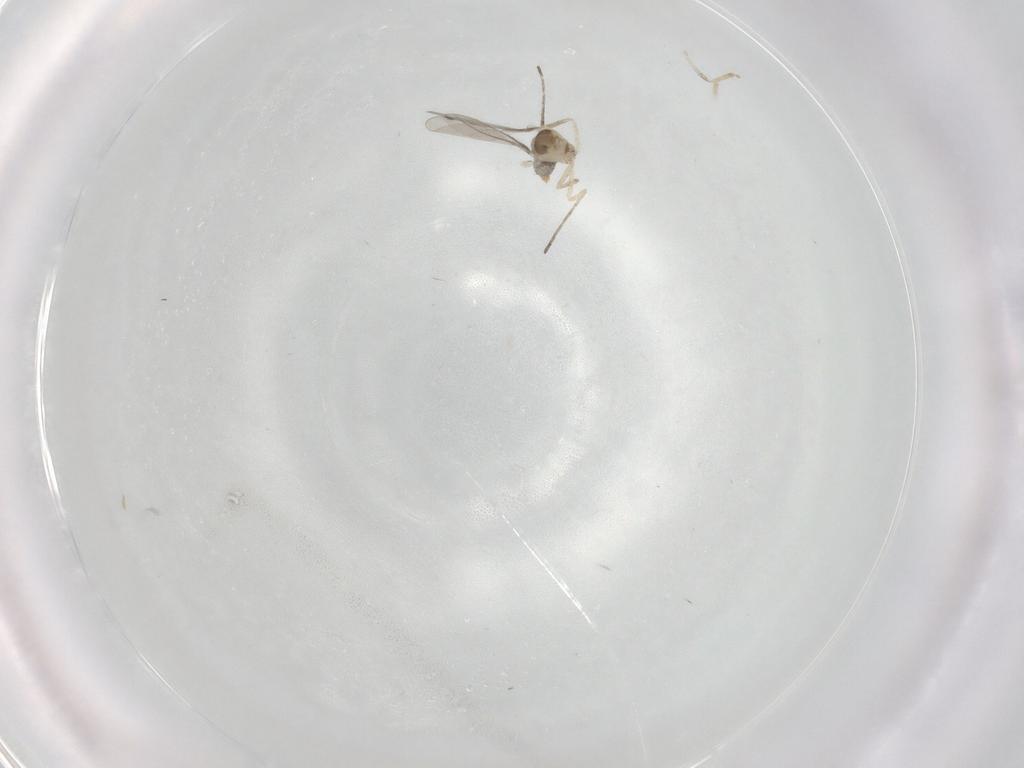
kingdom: Animalia
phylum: Arthropoda
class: Insecta
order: Diptera
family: Cecidomyiidae
